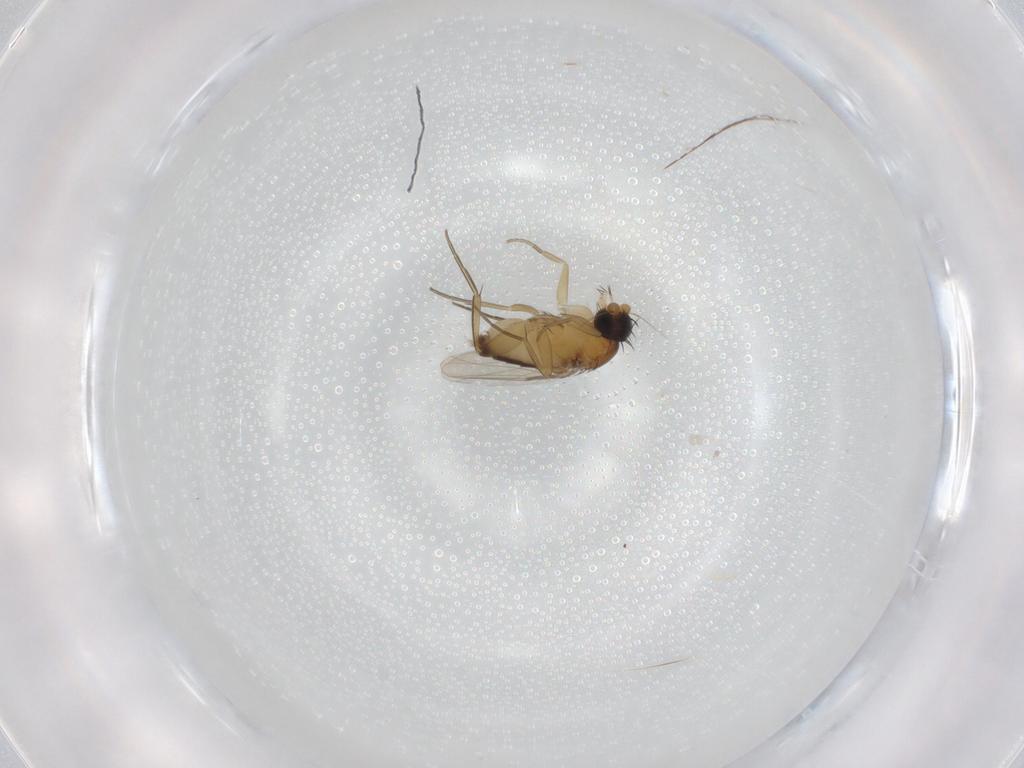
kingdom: Animalia
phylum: Arthropoda
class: Insecta
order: Diptera
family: Phoridae
